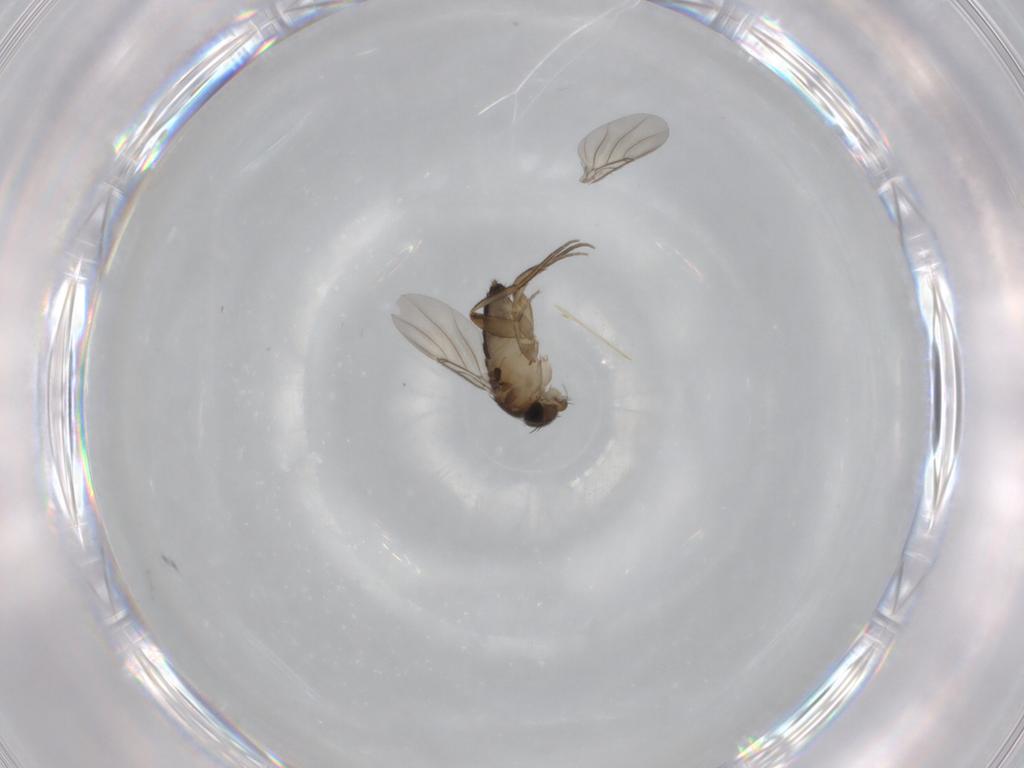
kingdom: Animalia
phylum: Arthropoda
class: Insecta
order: Diptera
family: Phoridae
